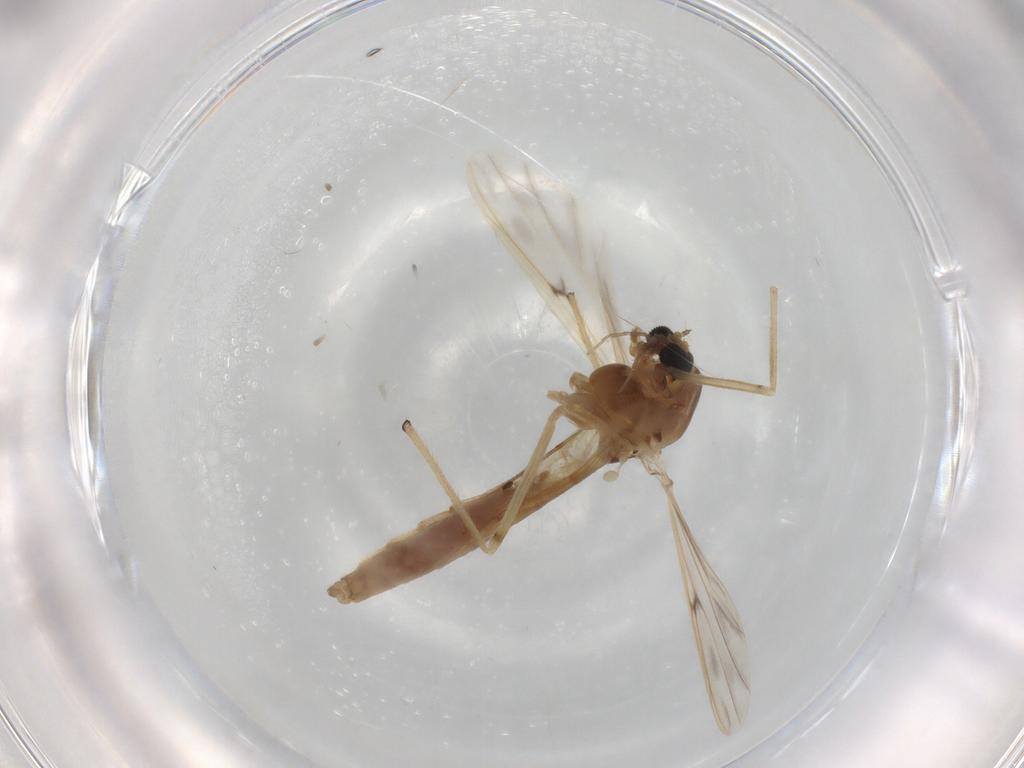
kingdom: Animalia
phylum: Arthropoda
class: Insecta
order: Diptera
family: Chironomidae
